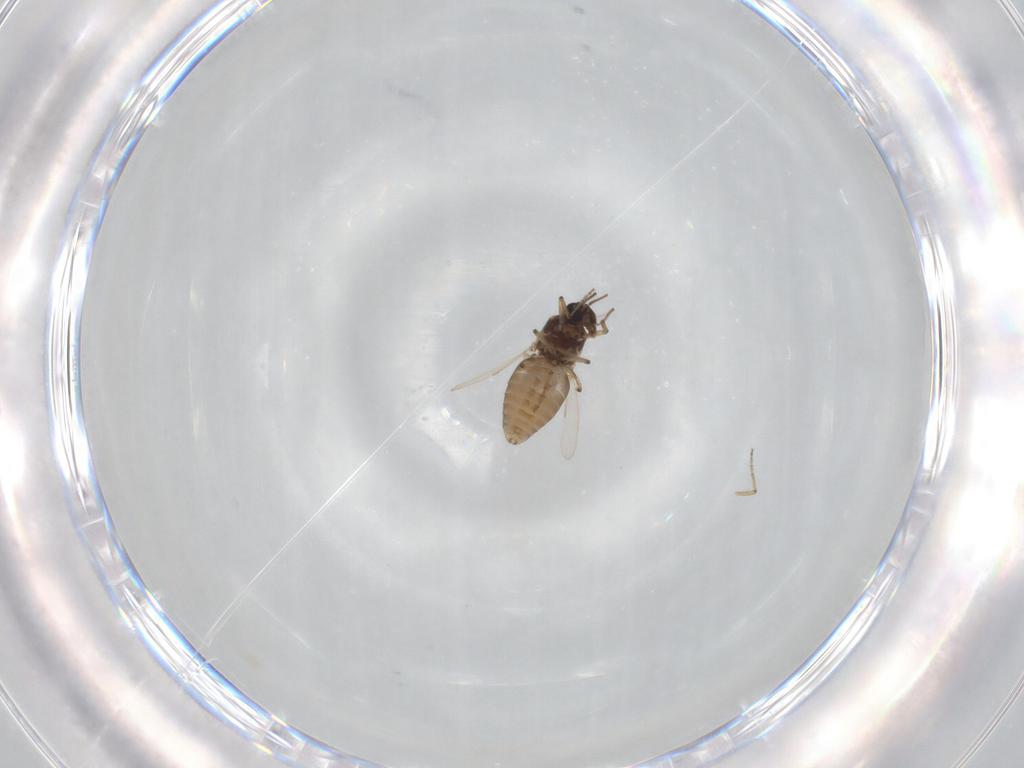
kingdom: Animalia
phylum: Arthropoda
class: Insecta
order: Diptera
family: Ceratopogonidae
